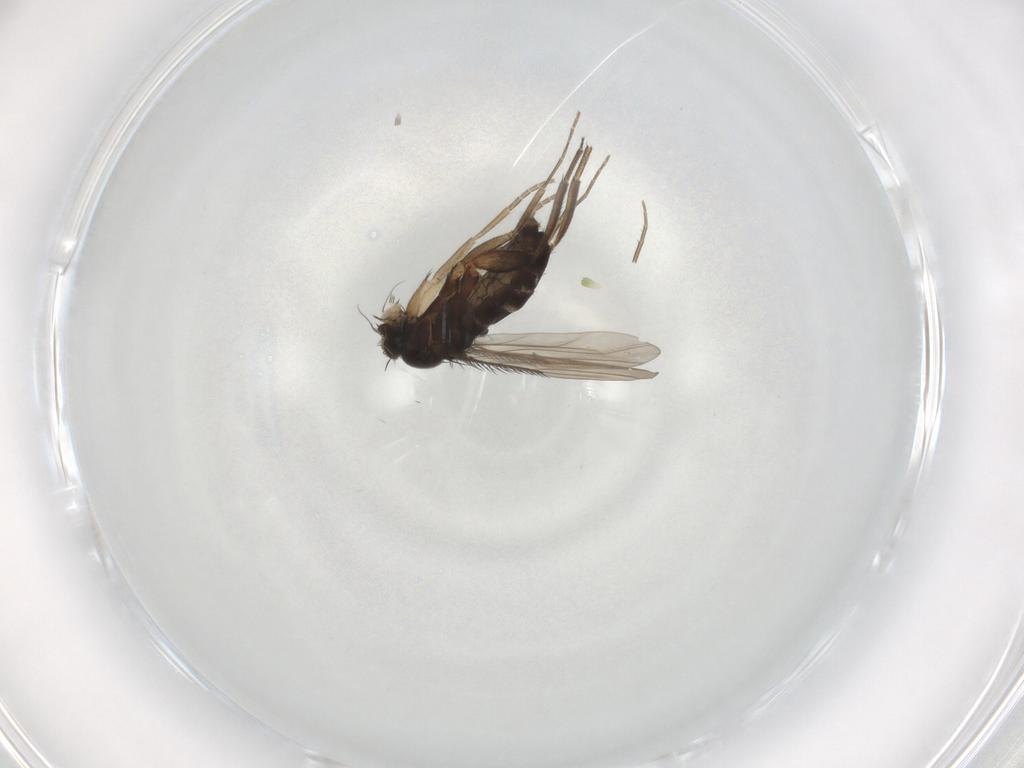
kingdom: Animalia
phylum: Arthropoda
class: Insecta
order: Diptera
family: Phoridae
